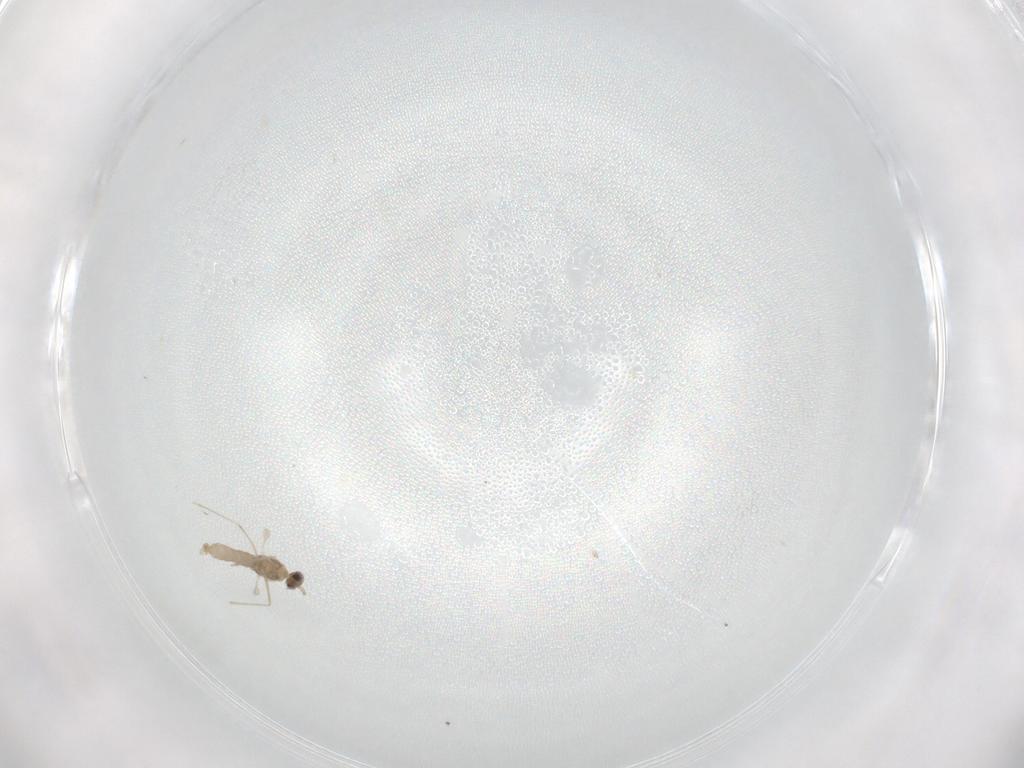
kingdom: Animalia
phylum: Arthropoda
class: Insecta
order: Diptera
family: Cecidomyiidae
